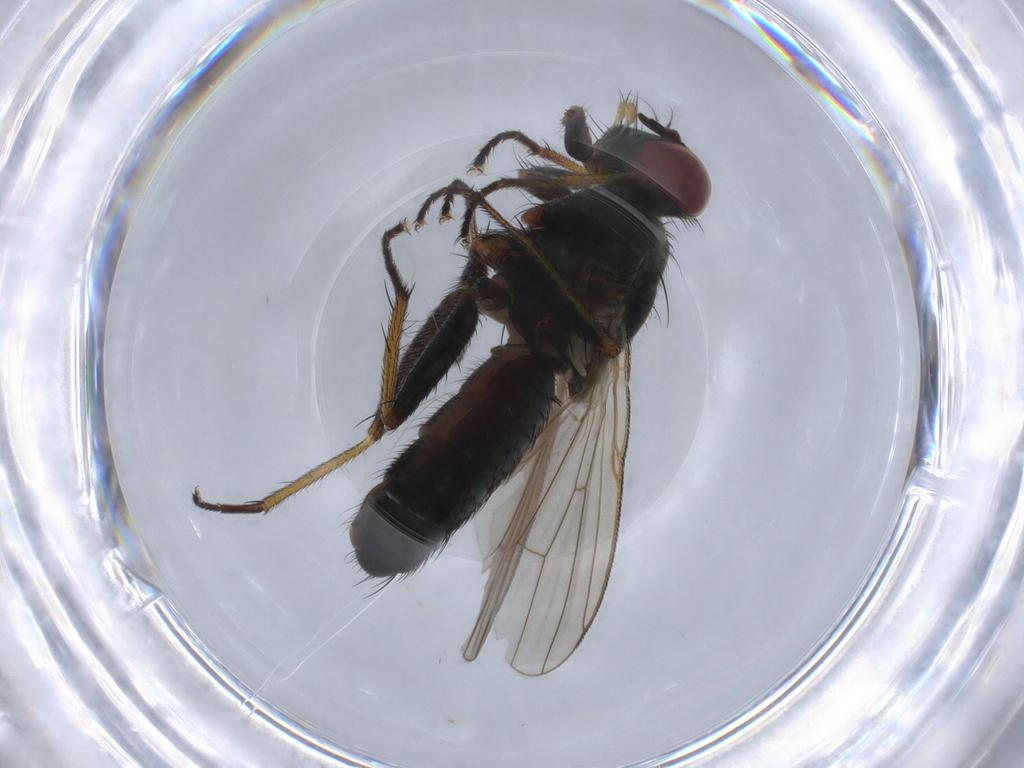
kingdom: Animalia
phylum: Arthropoda
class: Insecta
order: Diptera
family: Muscidae
